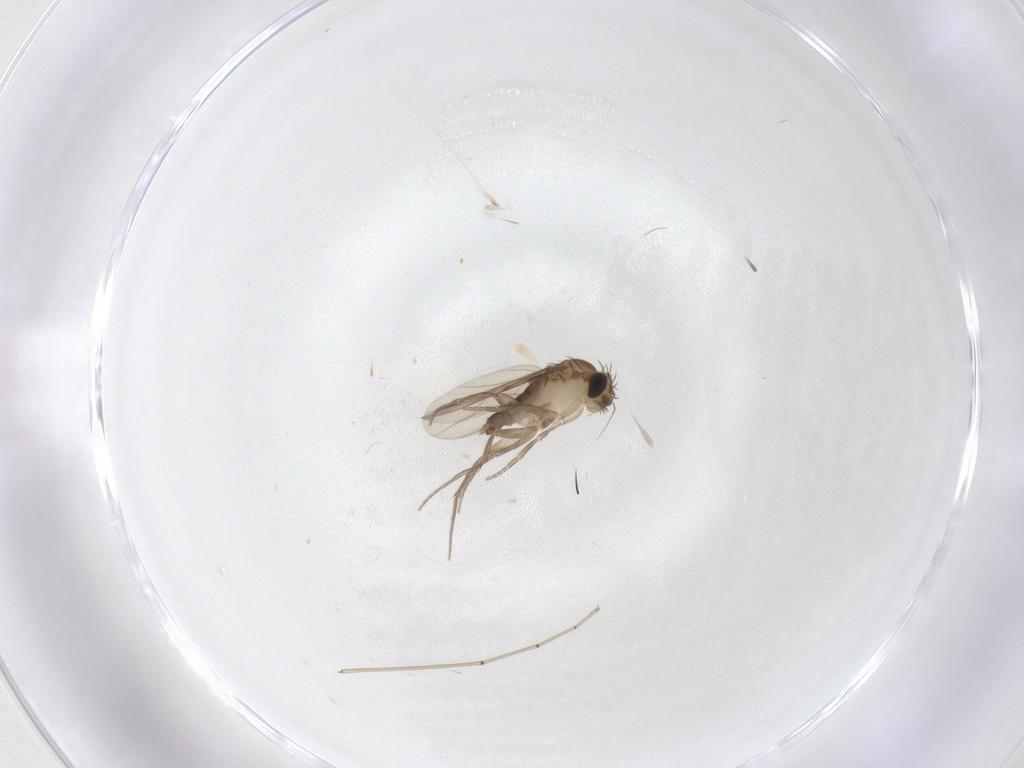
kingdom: Animalia
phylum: Arthropoda
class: Insecta
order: Diptera
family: Phoridae
